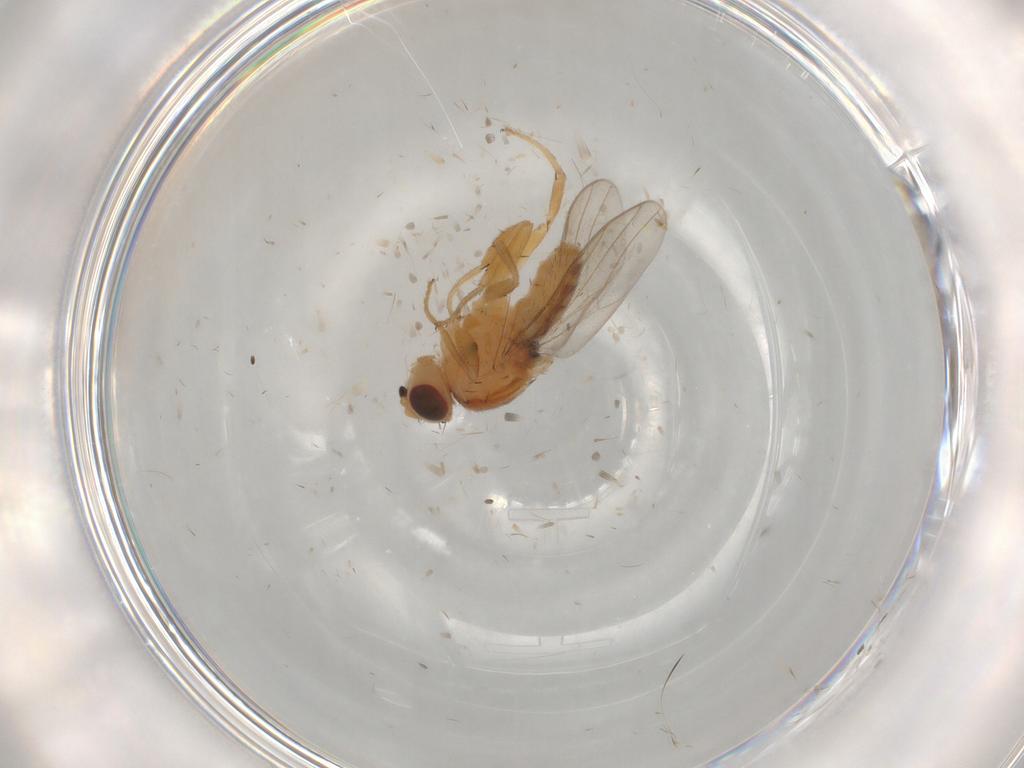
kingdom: Animalia
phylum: Arthropoda
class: Insecta
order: Diptera
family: Chloropidae
